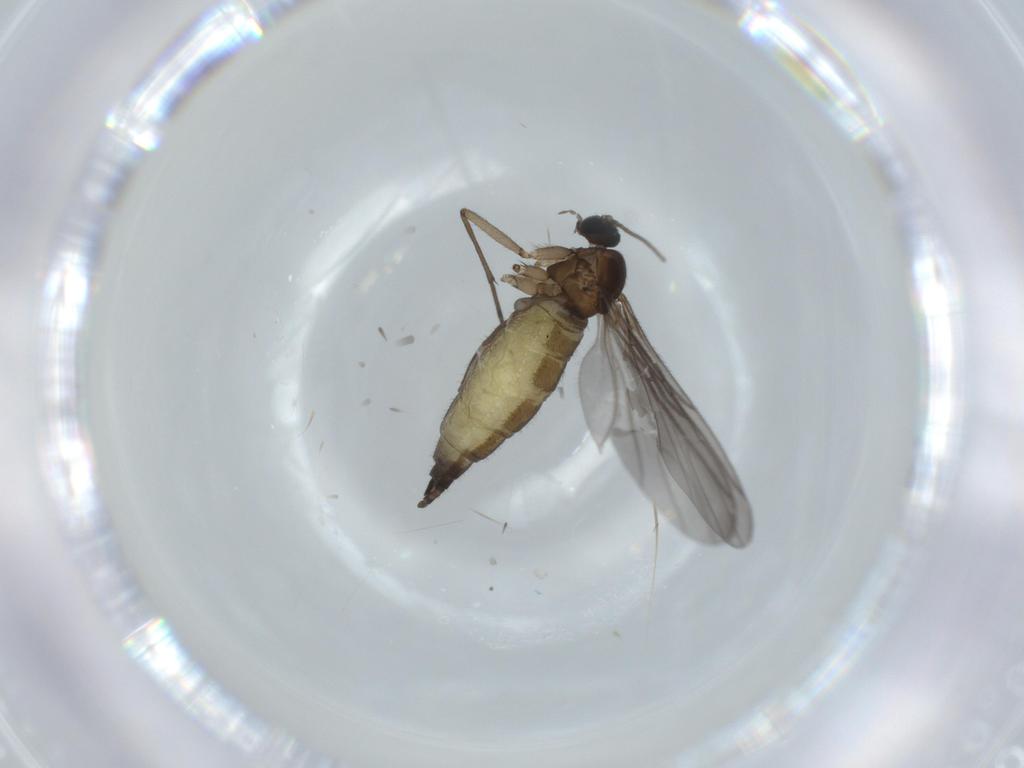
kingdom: Animalia
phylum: Arthropoda
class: Insecta
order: Diptera
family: Sciaridae
